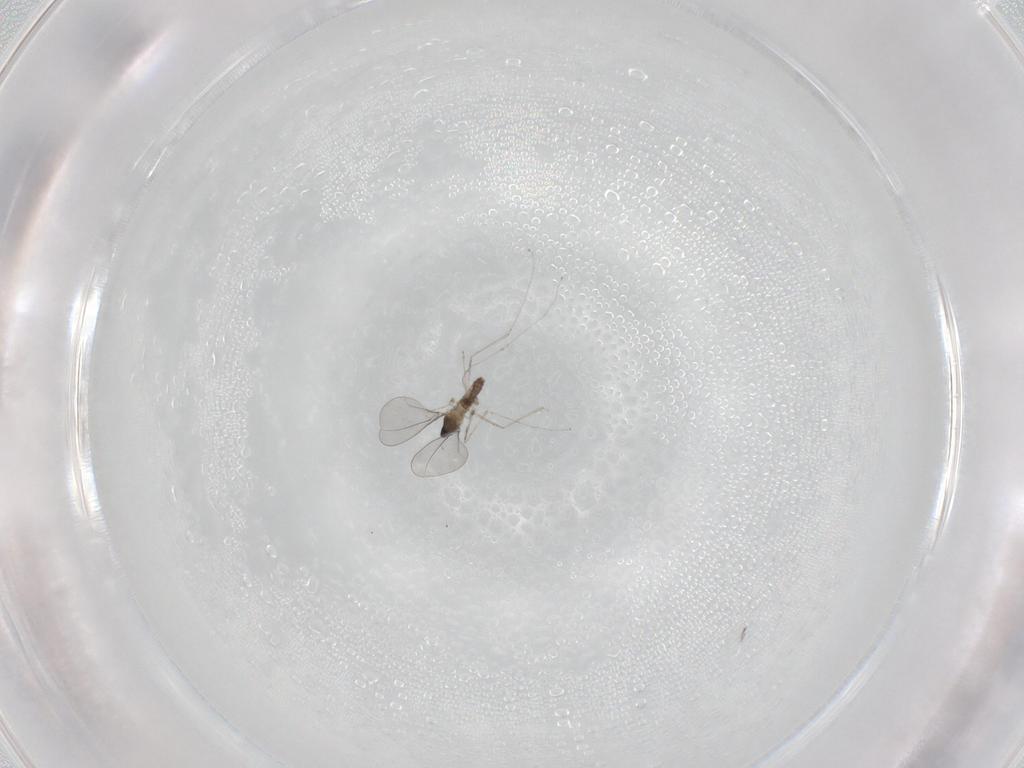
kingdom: Animalia
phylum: Arthropoda
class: Insecta
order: Diptera
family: Cecidomyiidae
